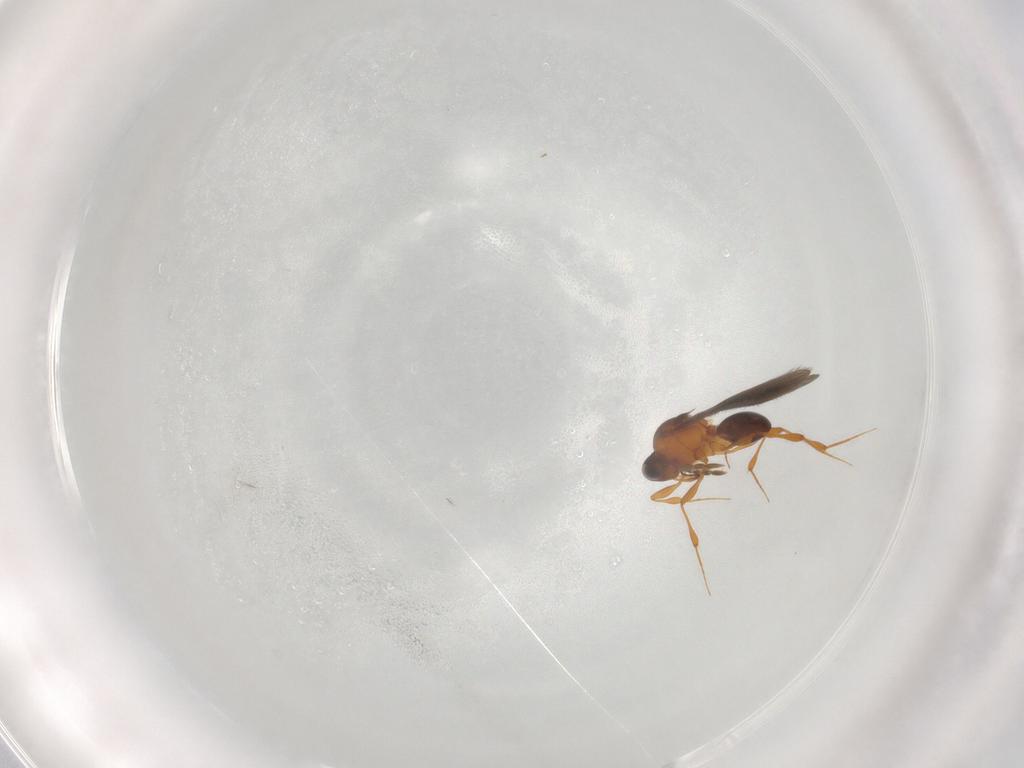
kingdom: Animalia
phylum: Arthropoda
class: Insecta
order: Hymenoptera
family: Platygastridae
